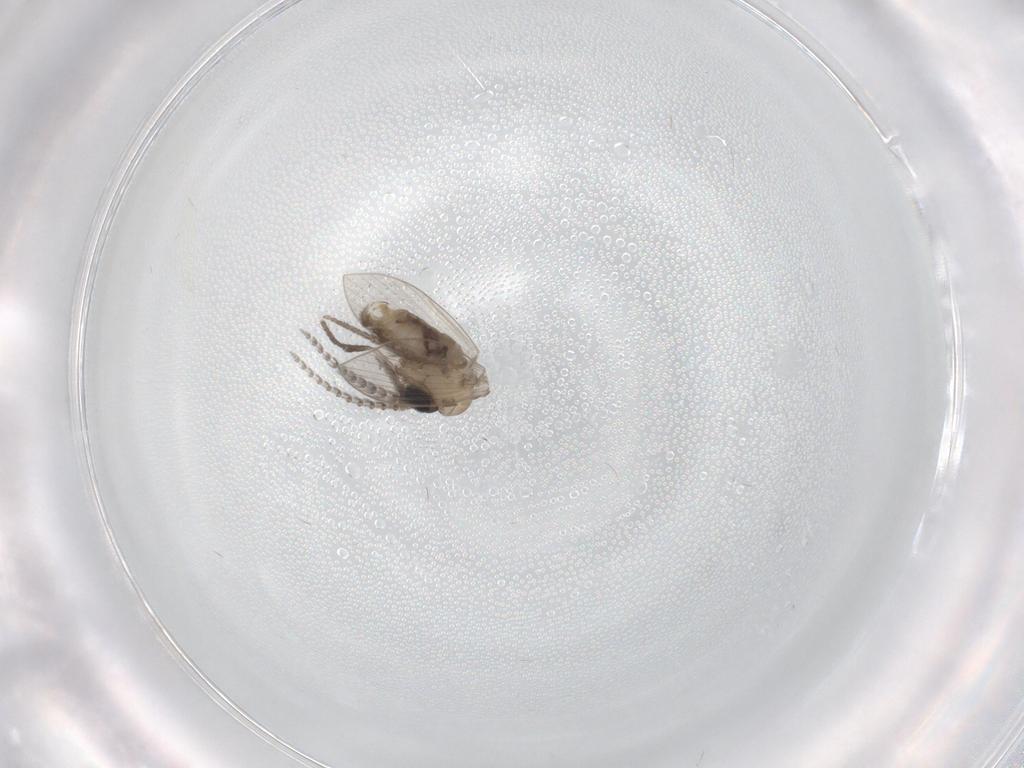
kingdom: Animalia
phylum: Arthropoda
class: Insecta
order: Diptera
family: Psychodidae
